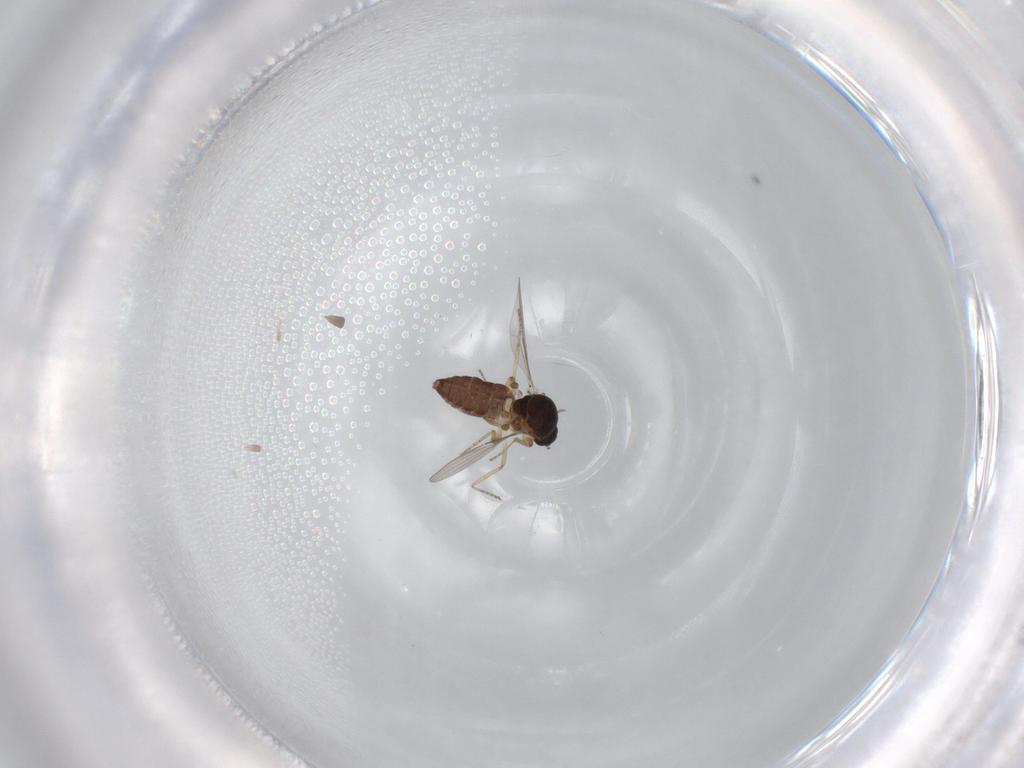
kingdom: Animalia
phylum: Arthropoda
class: Insecta
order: Diptera
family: Ceratopogonidae
